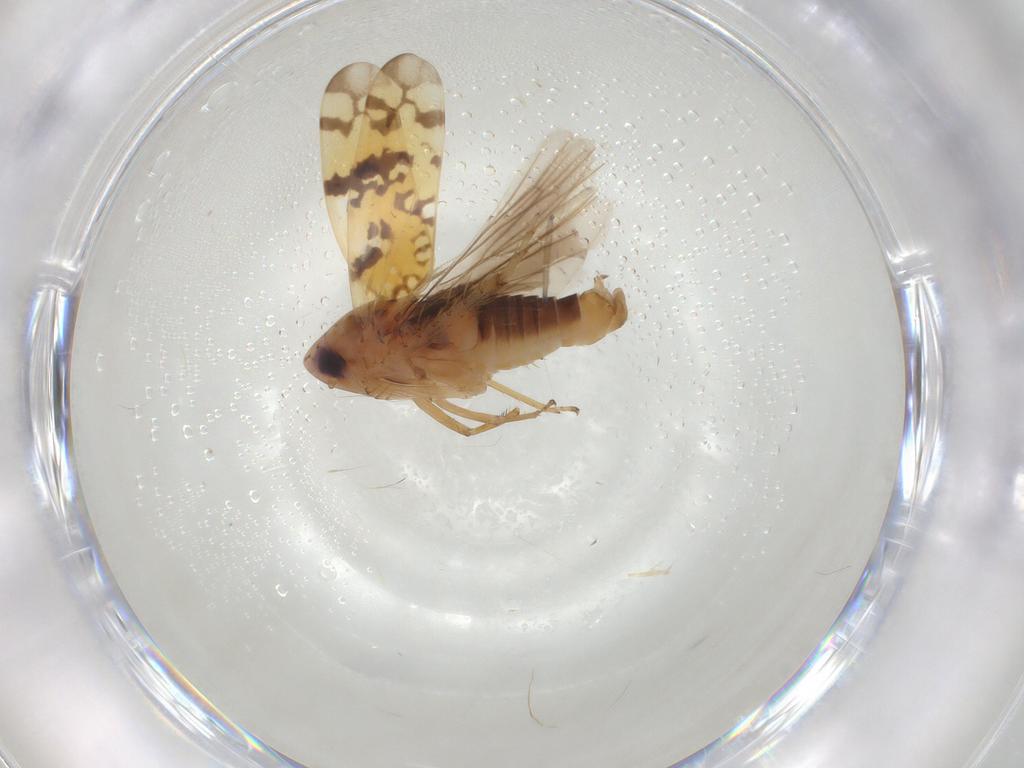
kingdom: Animalia
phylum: Arthropoda
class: Insecta
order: Hemiptera
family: Cicadellidae
